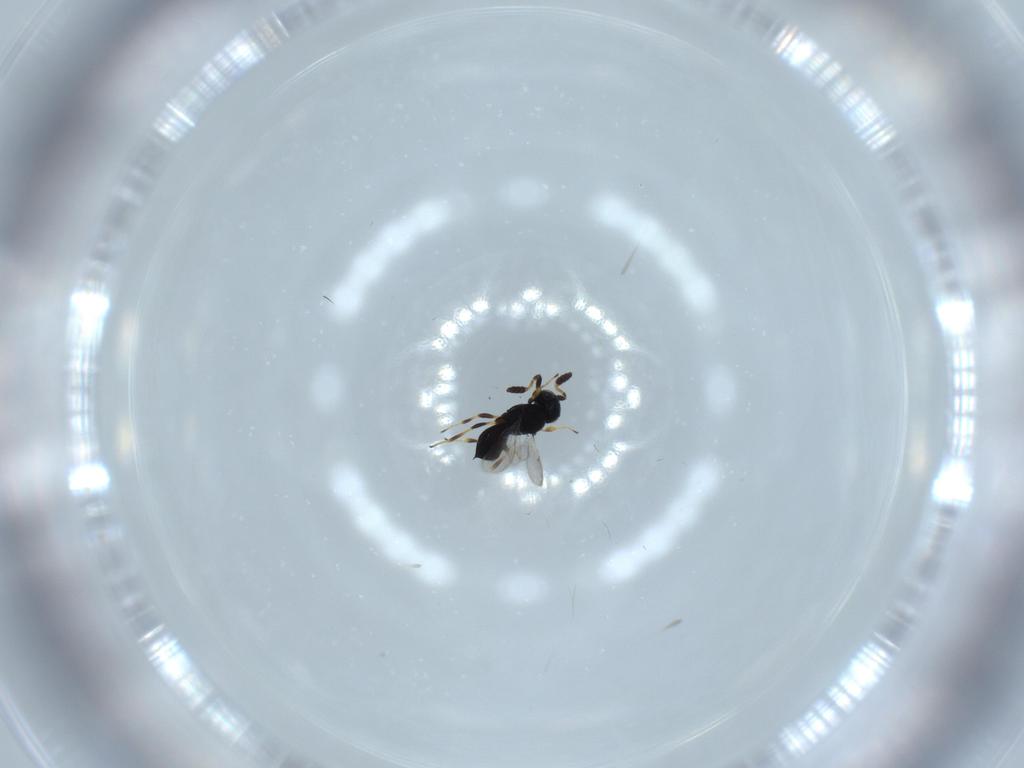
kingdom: Animalia
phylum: Arthropoda
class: Insecta
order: Hymenoptera
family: Scelionidae
